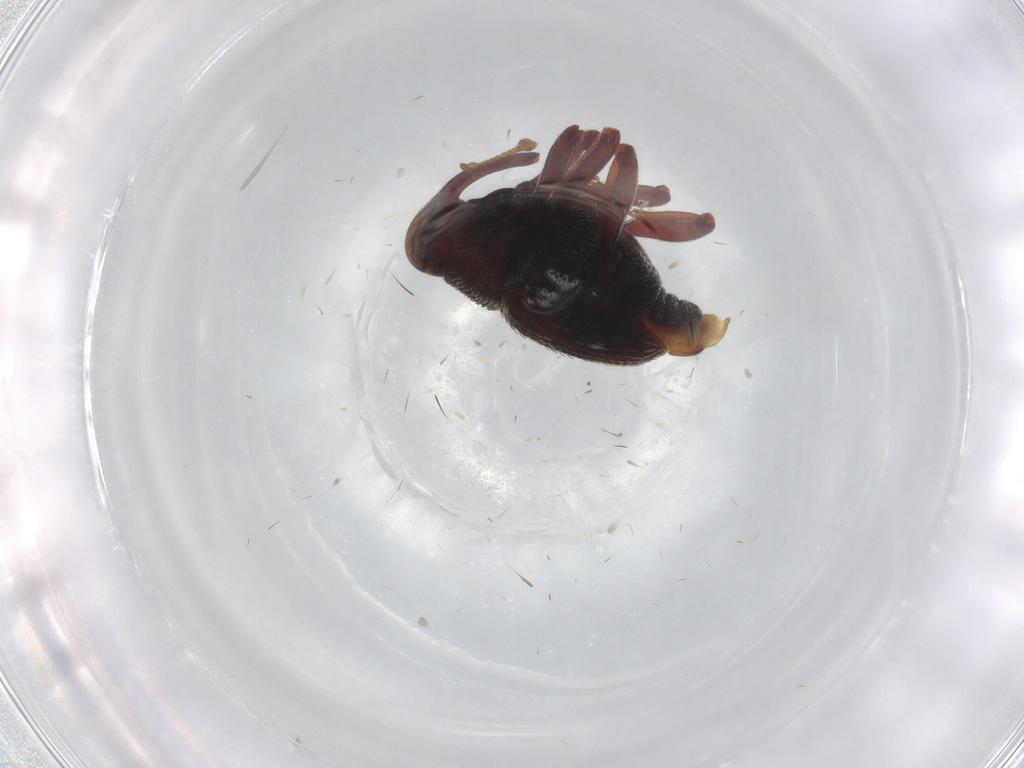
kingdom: Animalia
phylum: Arthropoda
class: Insecta
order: Coleoptera
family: Curculionidae
